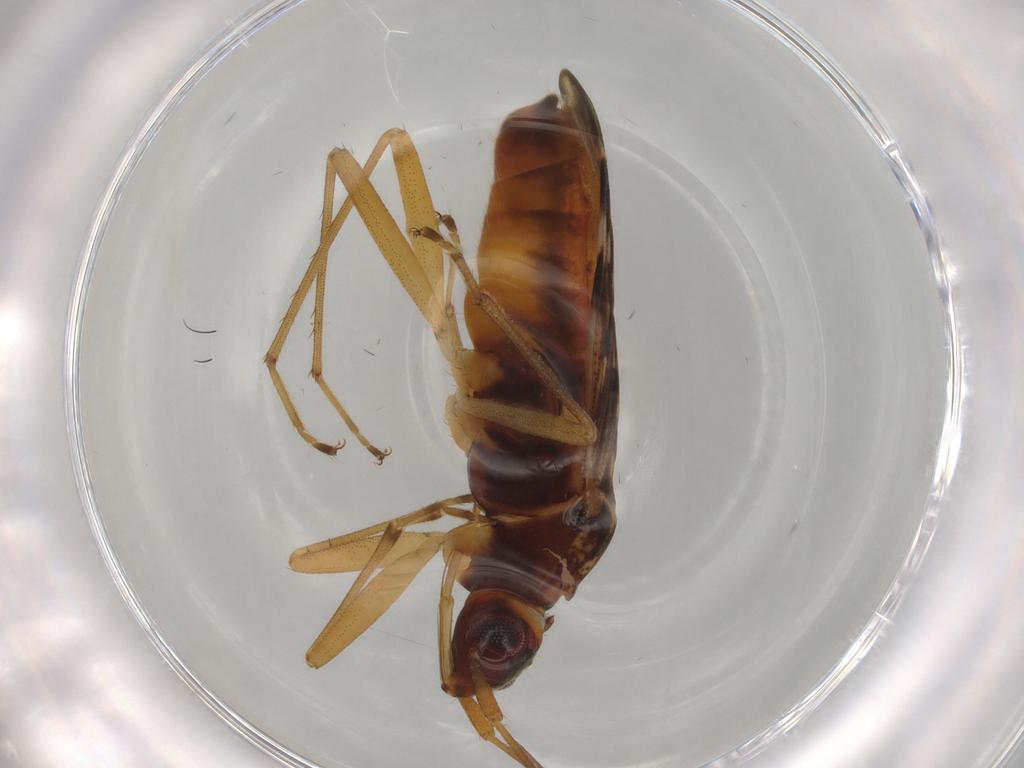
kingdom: Animalia
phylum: Arthropoda
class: Insecta
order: Hemiptera
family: Rhyparochromidae
